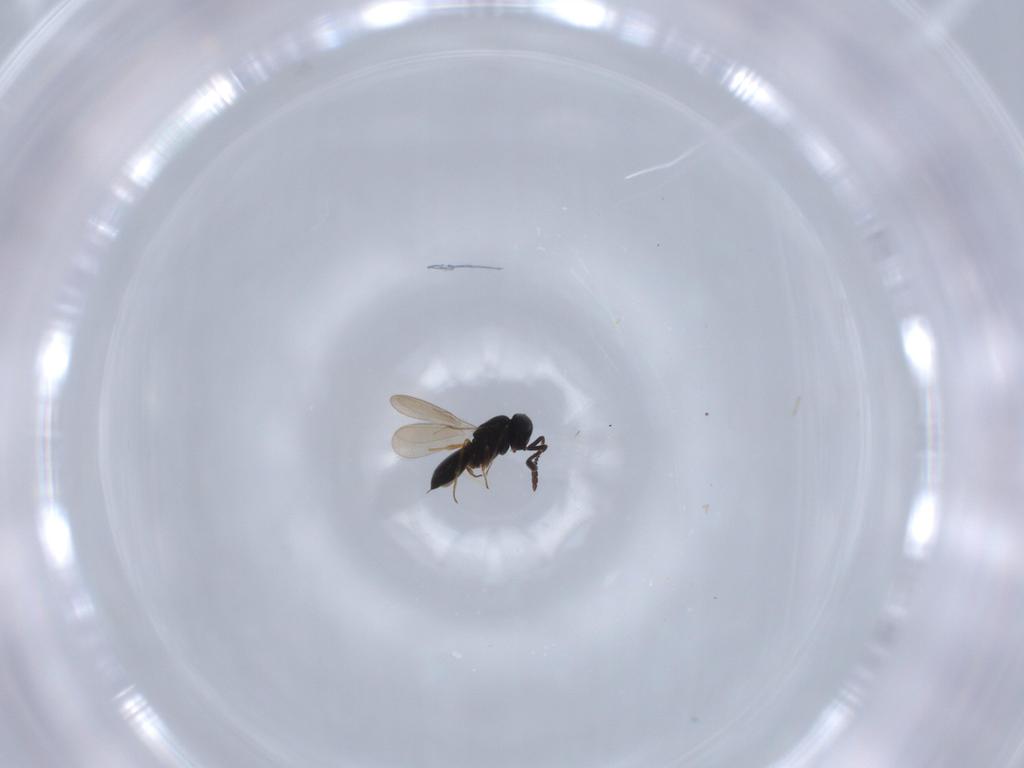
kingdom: Animalia
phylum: Arthropoda
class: Insecta
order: Hymenoptera
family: Scelionidae
